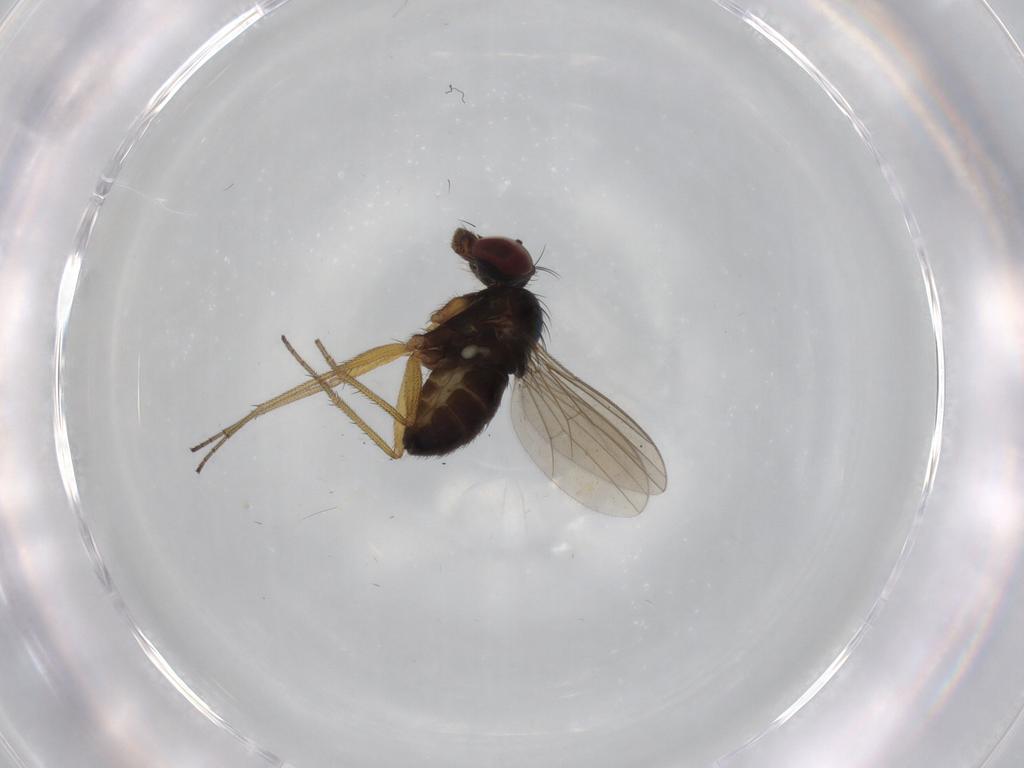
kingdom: Animalia
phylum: Arthropoda
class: Insecta
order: Diptera
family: Dolichopodidae
